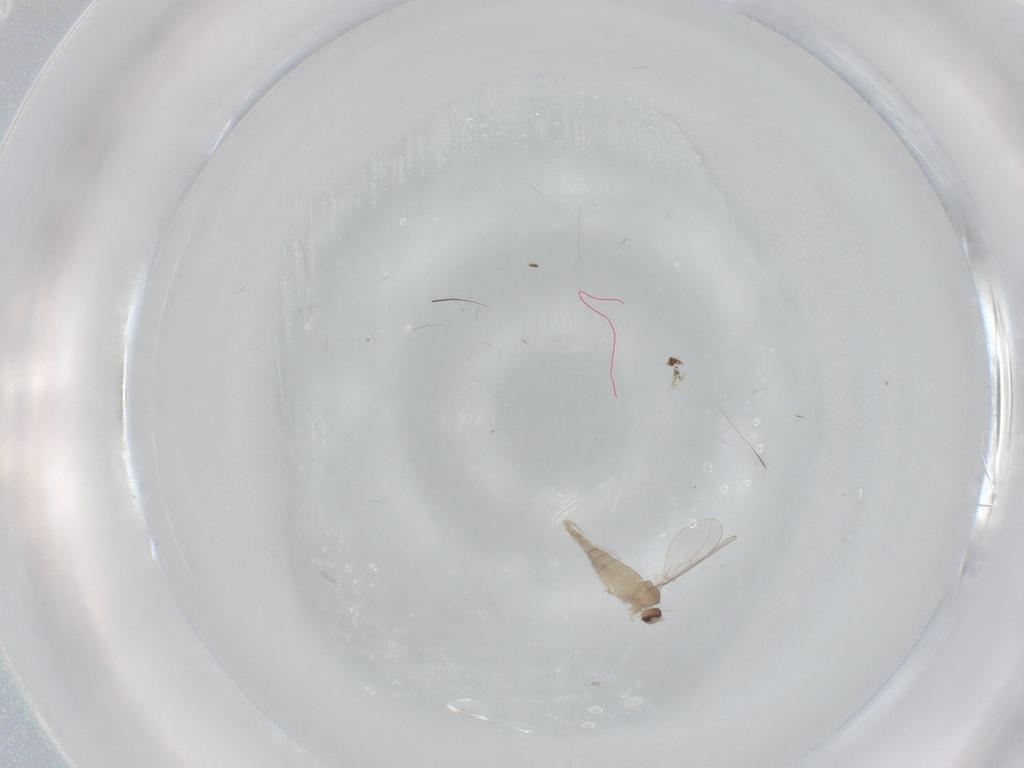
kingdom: Animalia
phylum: Arthropoda
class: Insecta
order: Diptera
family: Cecidomyiidae
